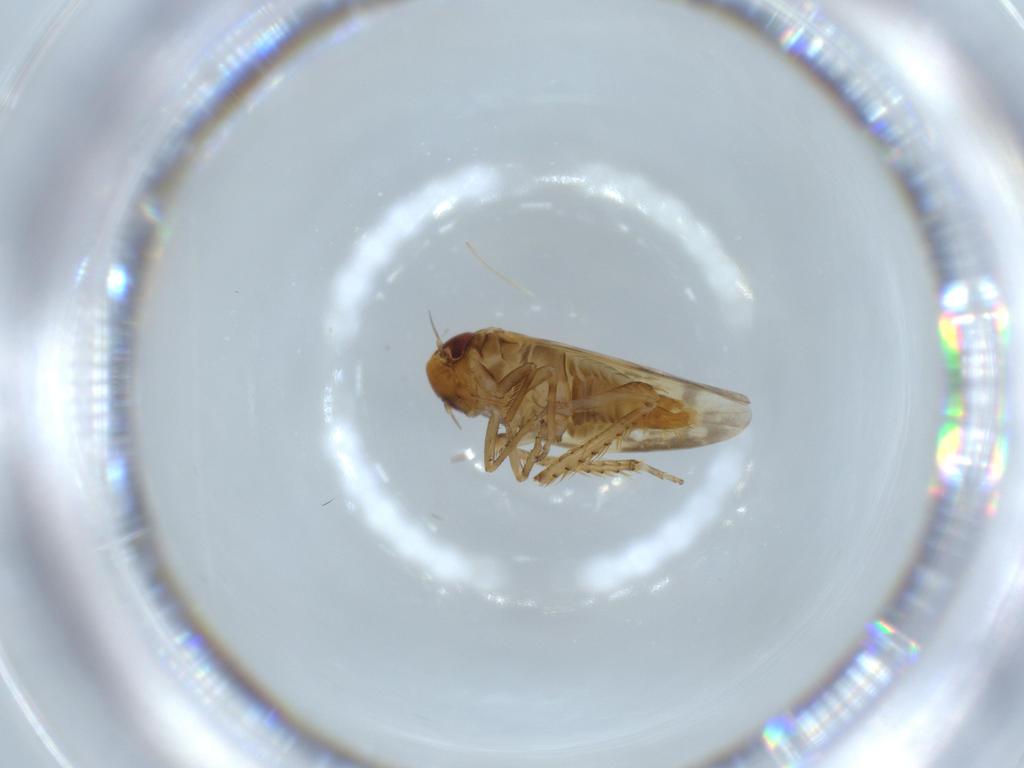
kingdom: Animalia
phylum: Arthropoda
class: Insecta
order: Hemiptera
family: Cicadellidae
